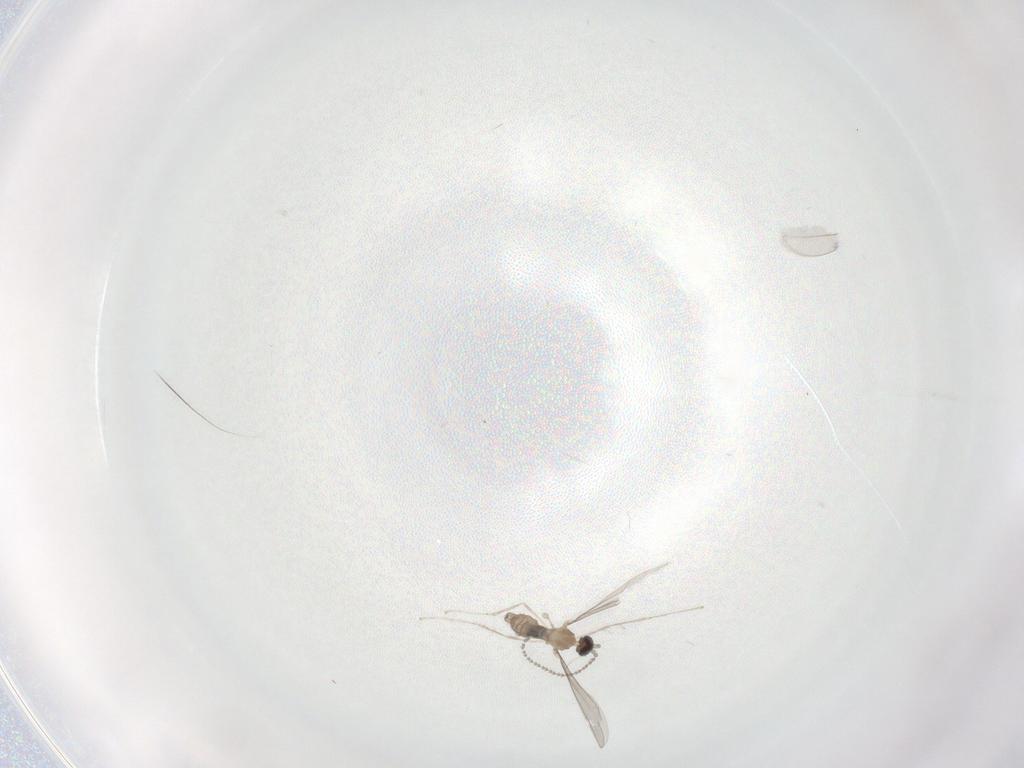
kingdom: Animalia
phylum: Arthropoda
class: Insecta
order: Diptera
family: Cecidomyiidae
